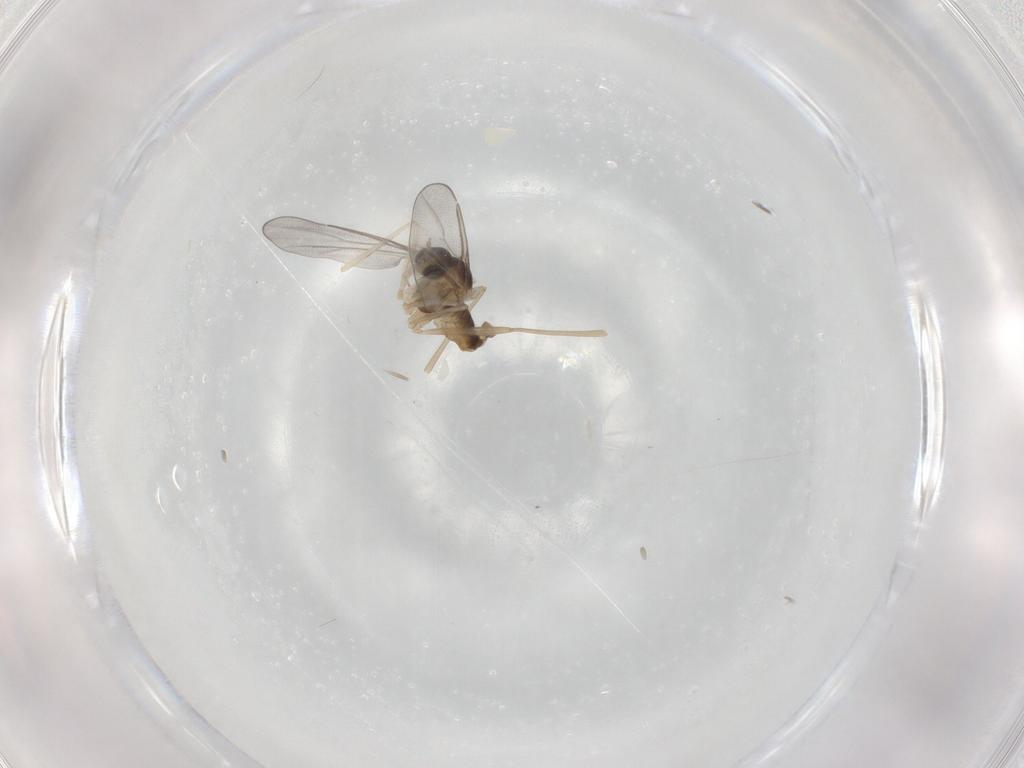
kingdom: Animalia
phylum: Arthropoda
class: Insecta
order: Diptera
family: Cecidomyiidae
